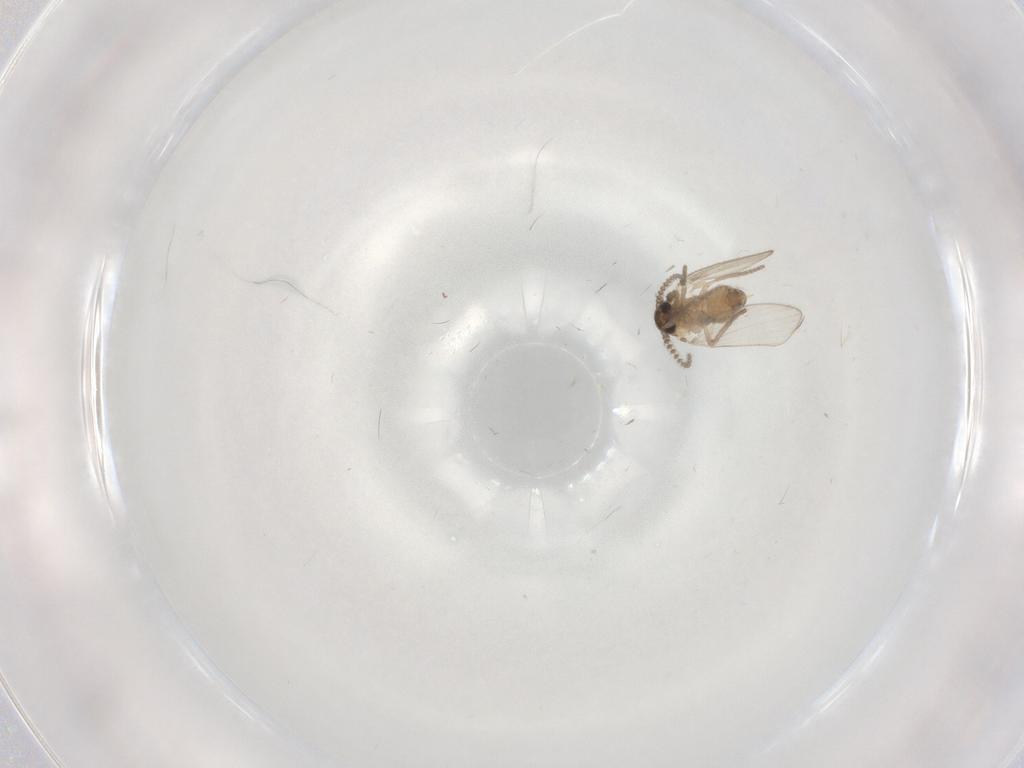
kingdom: Animalia
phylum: Arthropoda
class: Insecta
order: Diptera
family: Psychodidae
